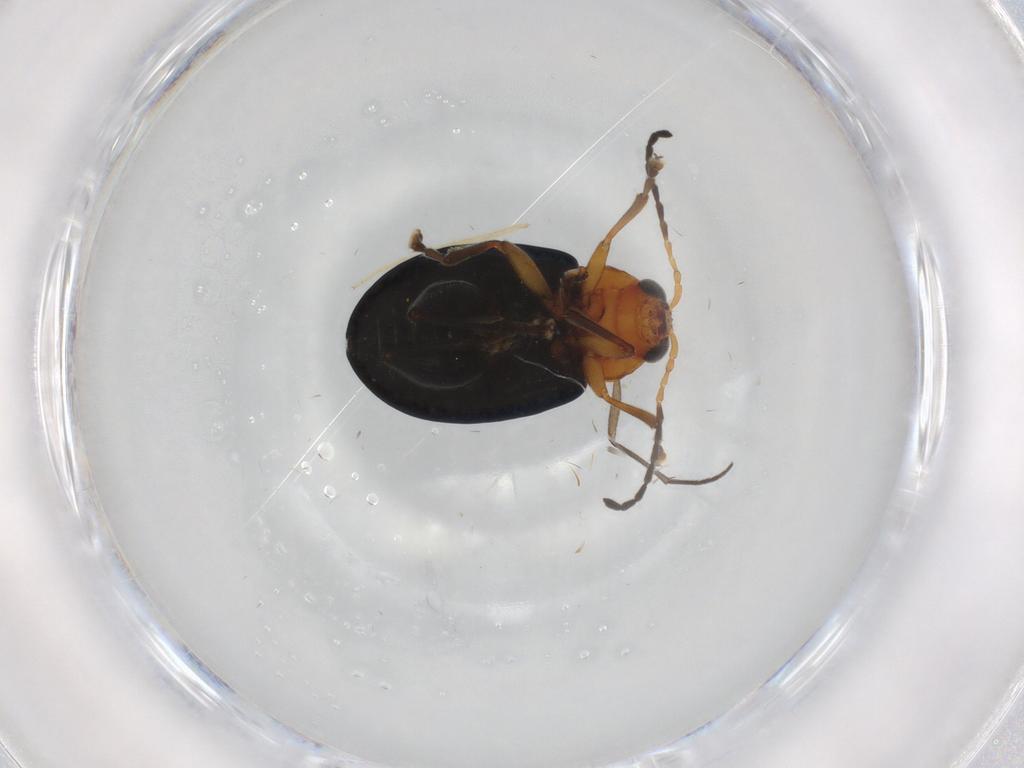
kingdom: Animalia
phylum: Arthropoda
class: Insecta
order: Coleoptera
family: Chrysomelidae
